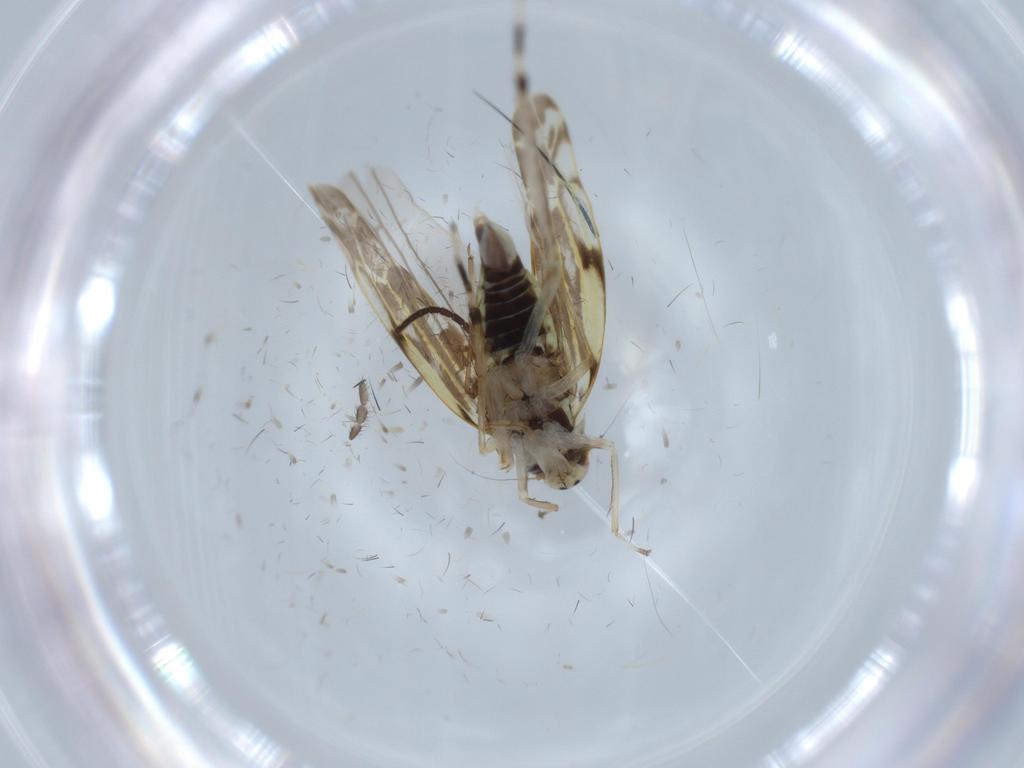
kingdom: Animalia
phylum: Arthropoda
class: Insecta
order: Hemiptera
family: Cicadellidae
